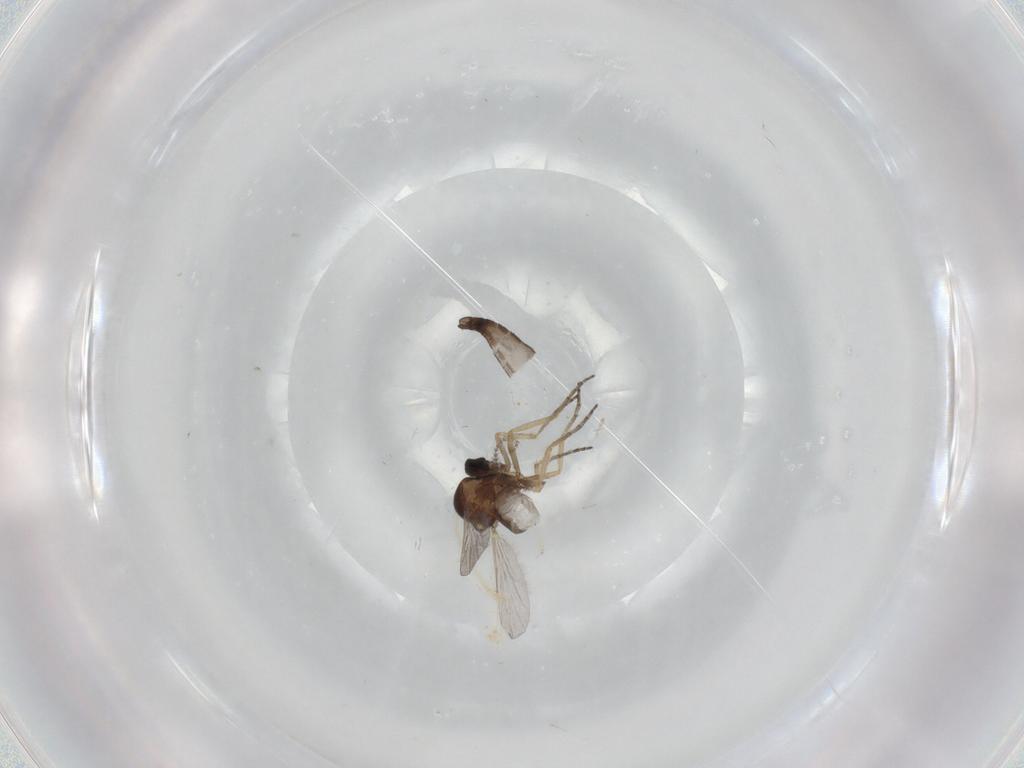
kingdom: Animalia
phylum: Arthropoda
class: Insecta
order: Diptera
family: Ceratopogonidae
